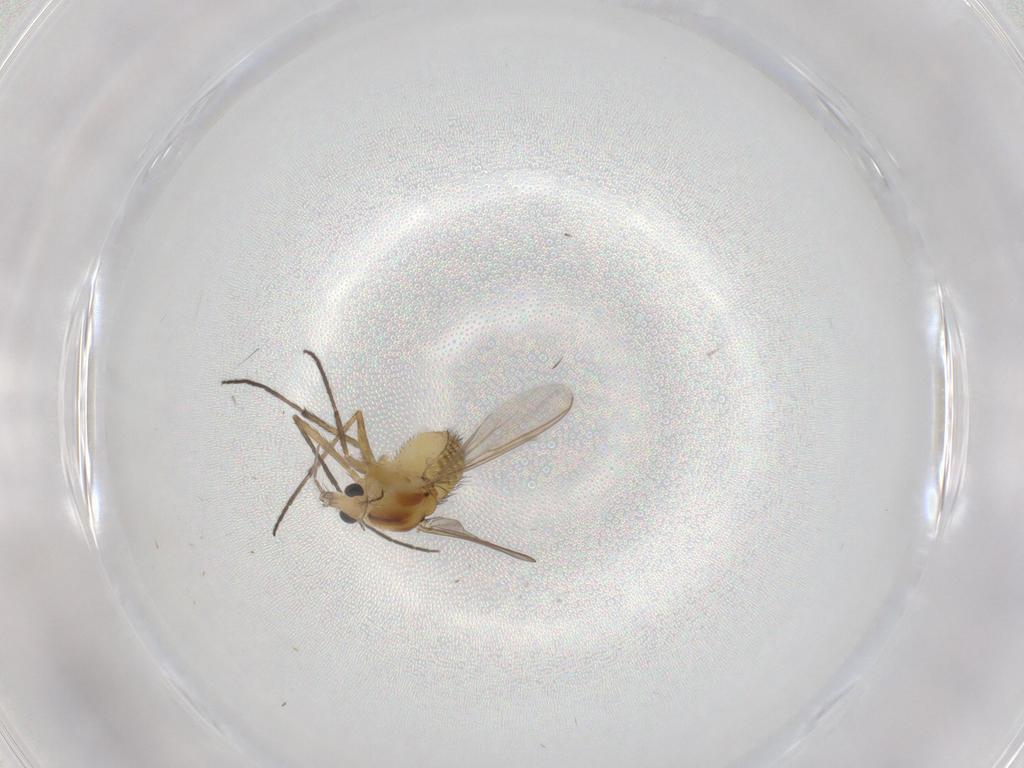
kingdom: Animalia
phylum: Arthropoda
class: Insecta
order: Diptera
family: Chironomidae
